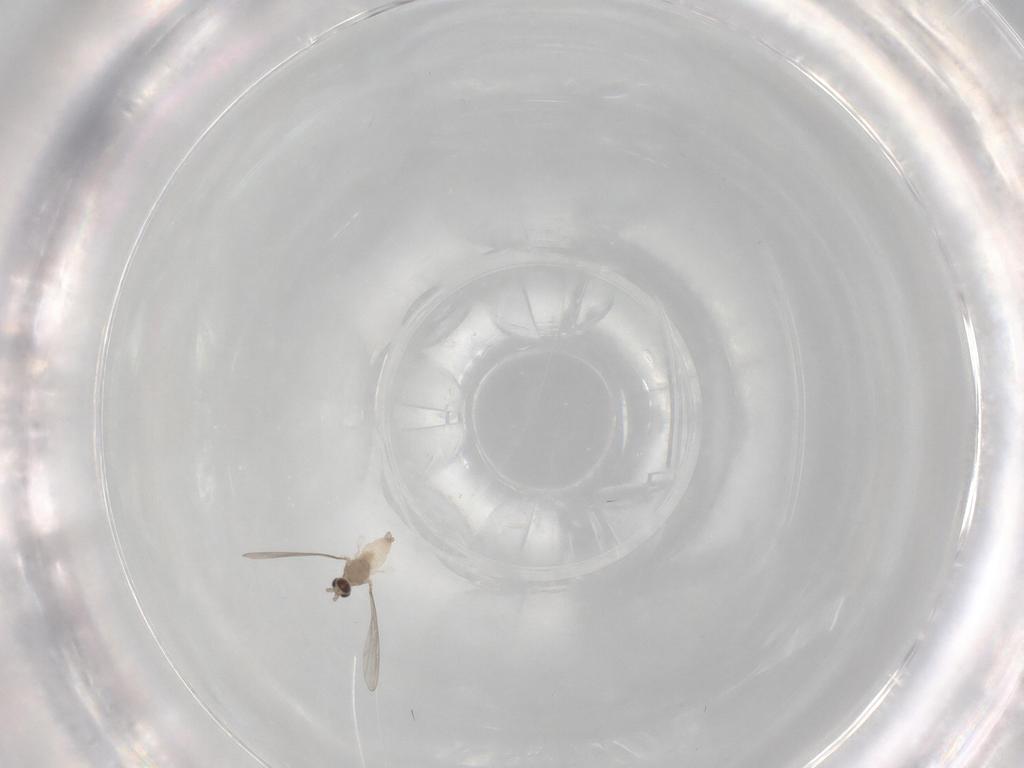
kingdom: Animalia
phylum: Arthropoda
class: Insecta
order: Diptera
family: Cecidomyiidae
